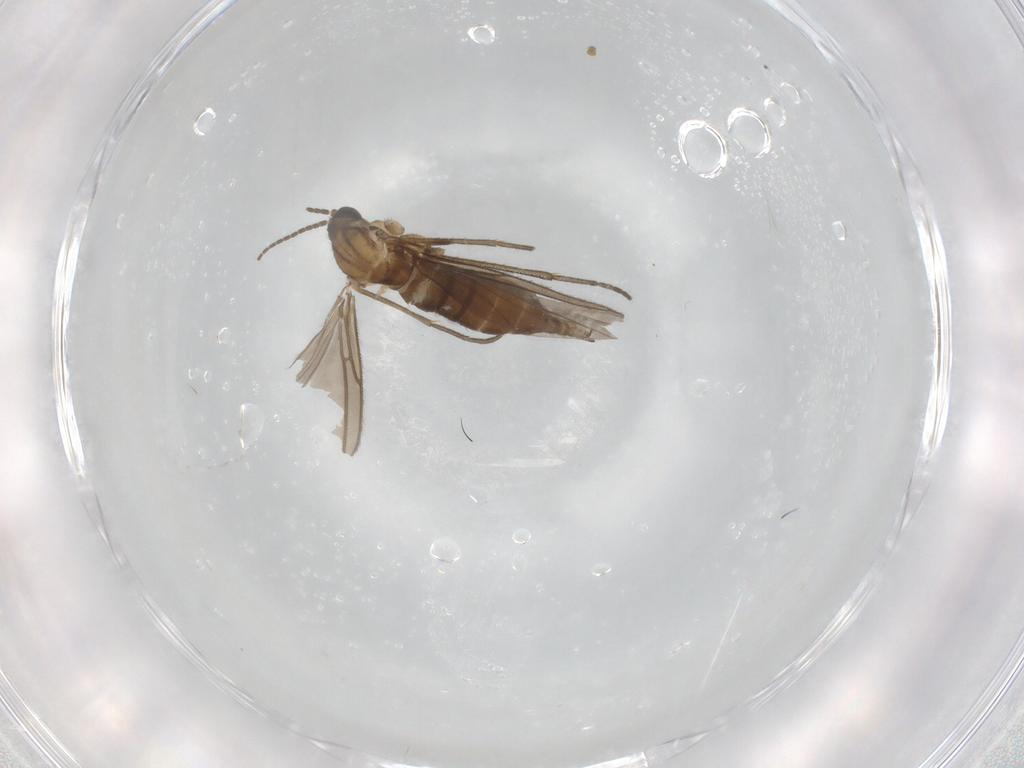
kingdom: Animalia
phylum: Arthropoda
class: Insecta
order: Diptera
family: Sciaridae
